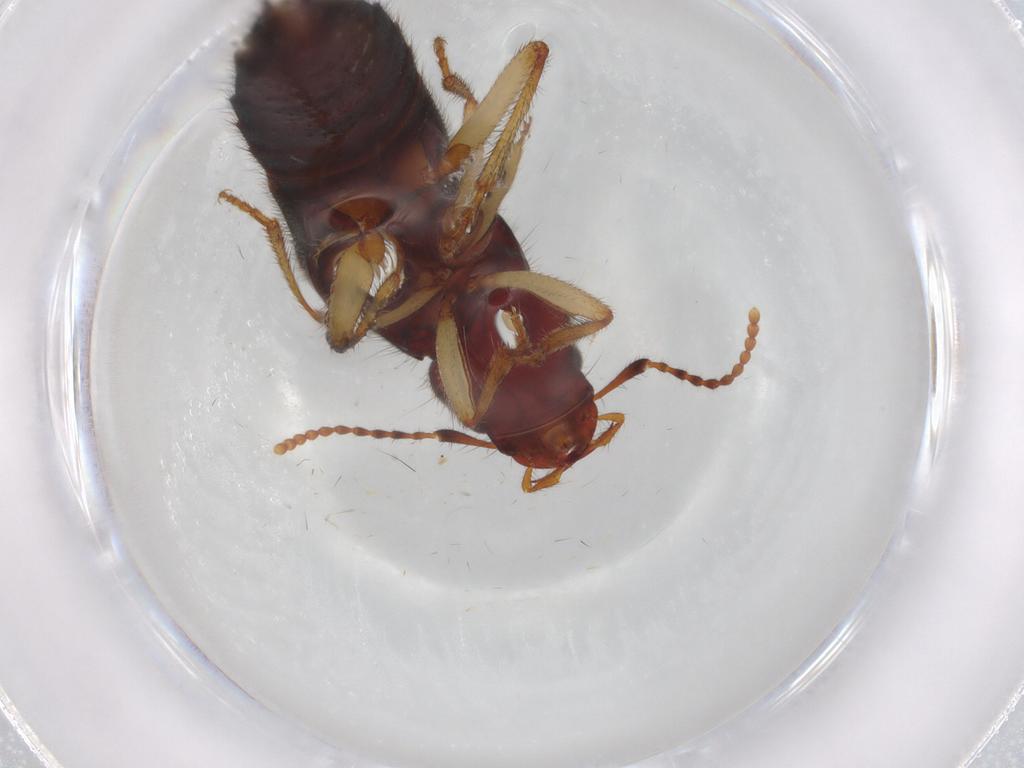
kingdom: Animalia
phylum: Arthropoda
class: Insecta
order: Coleoptera
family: Staphylinidae
